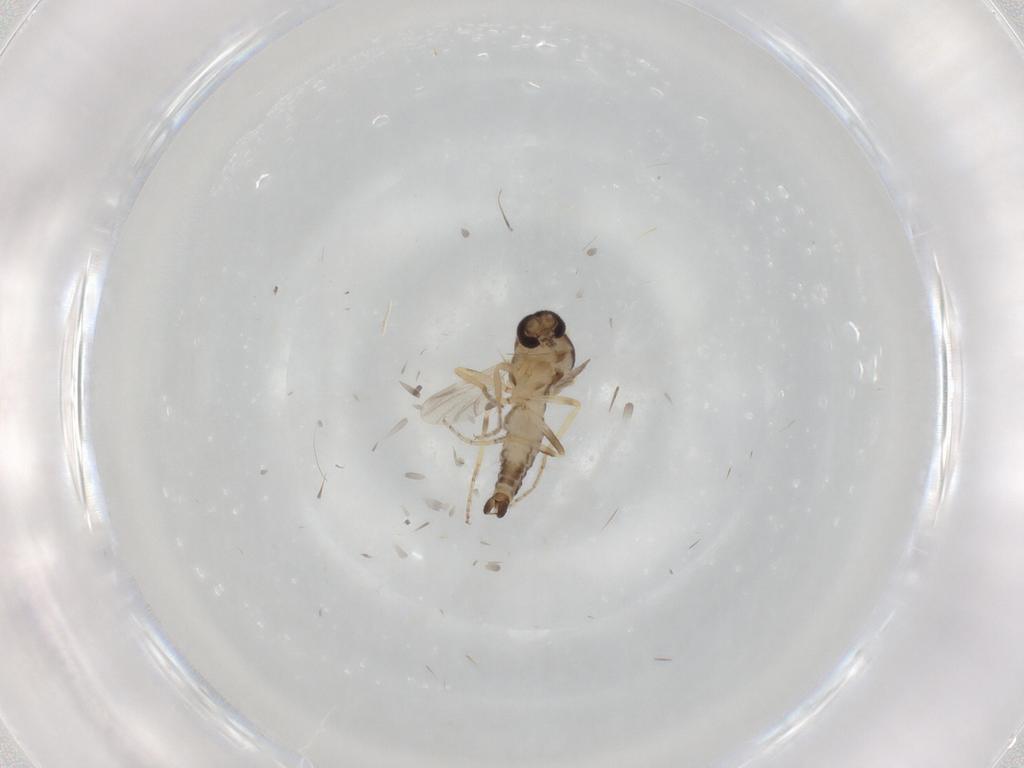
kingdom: Animalia
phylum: Arthropoda
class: Insecta
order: Diptera
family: Ceratopogonidae
